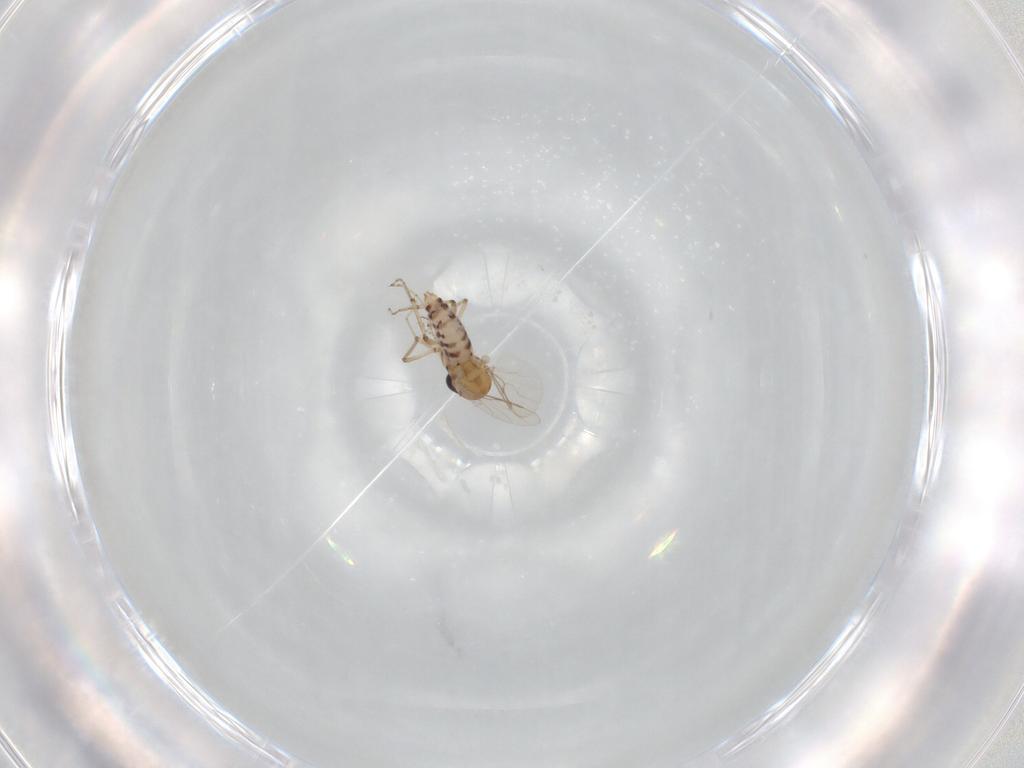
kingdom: Animalia
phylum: Arthropoda
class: Insecta
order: Diptera
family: Ceratopogonidae
